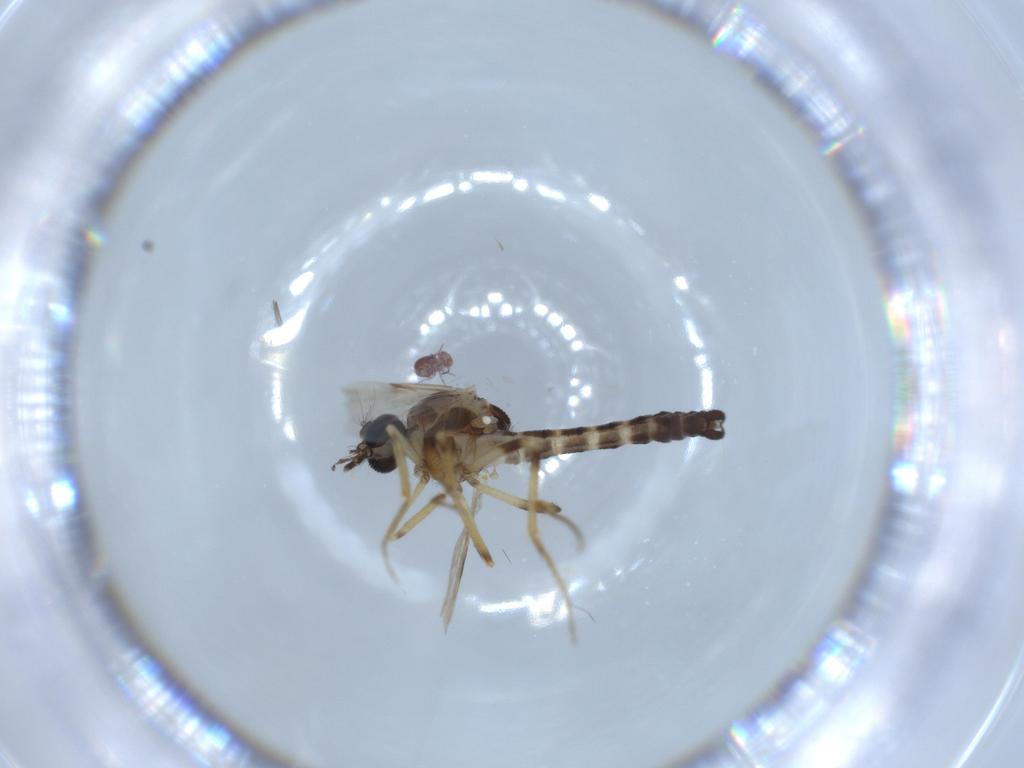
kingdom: Animalia
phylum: Arthropoda
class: Insecta
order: Diptera
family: Ceratopogonidae
